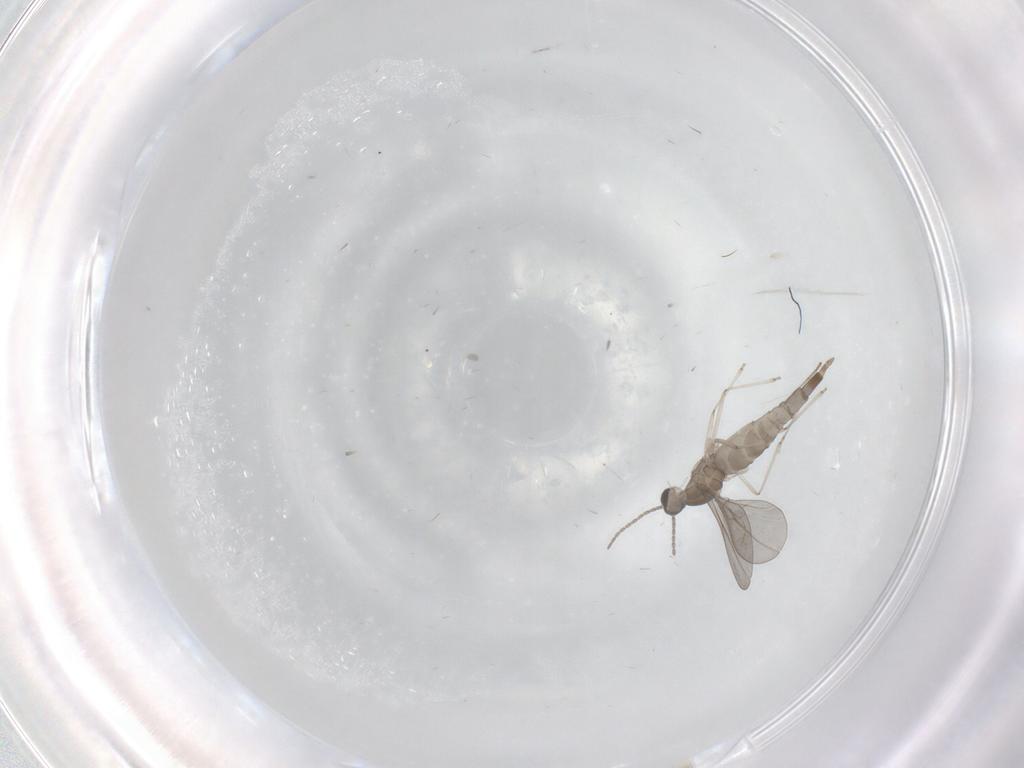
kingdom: Animalia
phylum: Arthropoda
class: Insecta
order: Diptera
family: Cecidomyiidae
